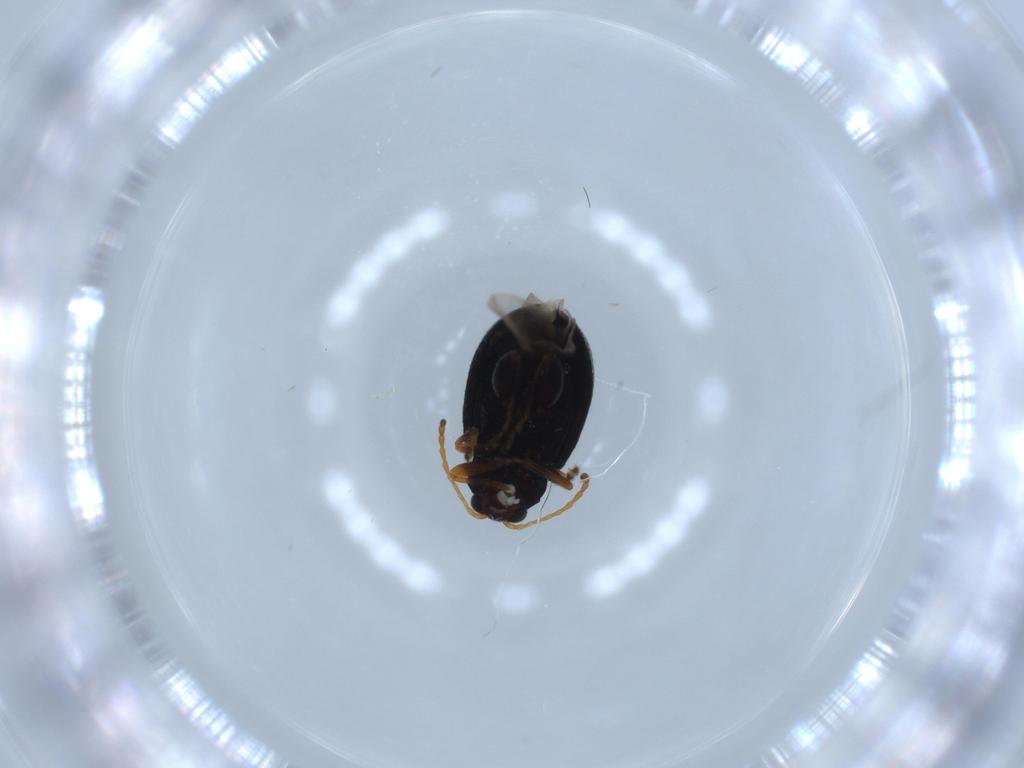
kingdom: Animalia
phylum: Arthropoda
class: Insecta
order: Coleoptera
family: Chrysomelidae
